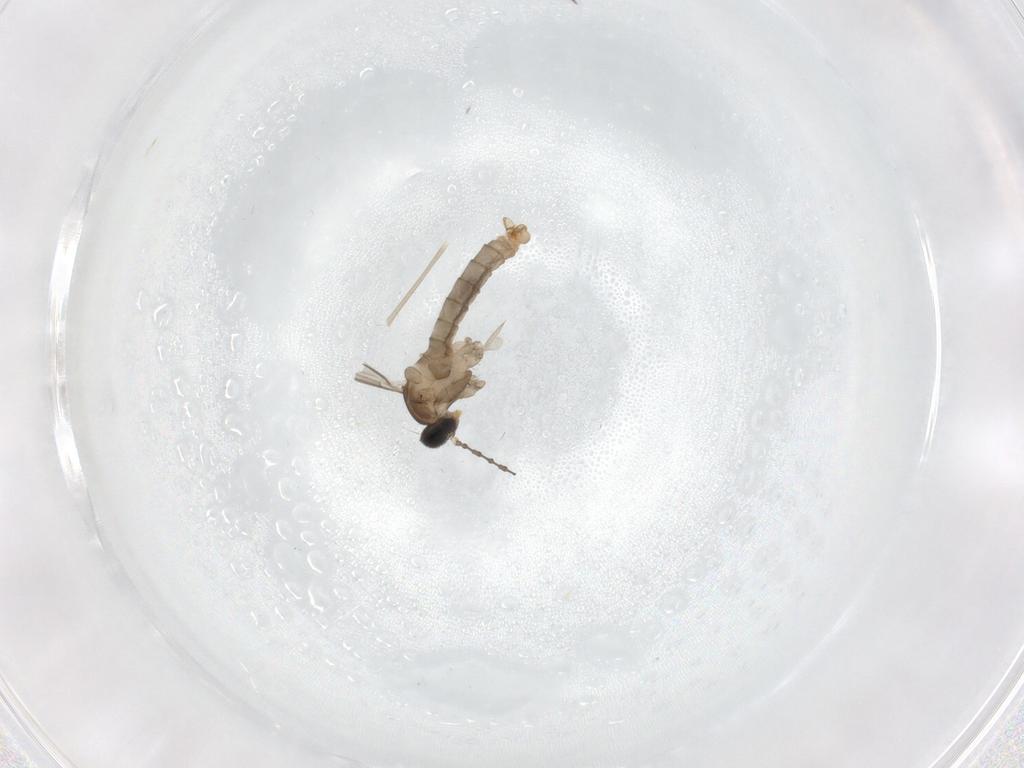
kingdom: Animalia
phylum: Arthropoda
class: Insecta
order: Diptera
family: Cecidomyiidae
